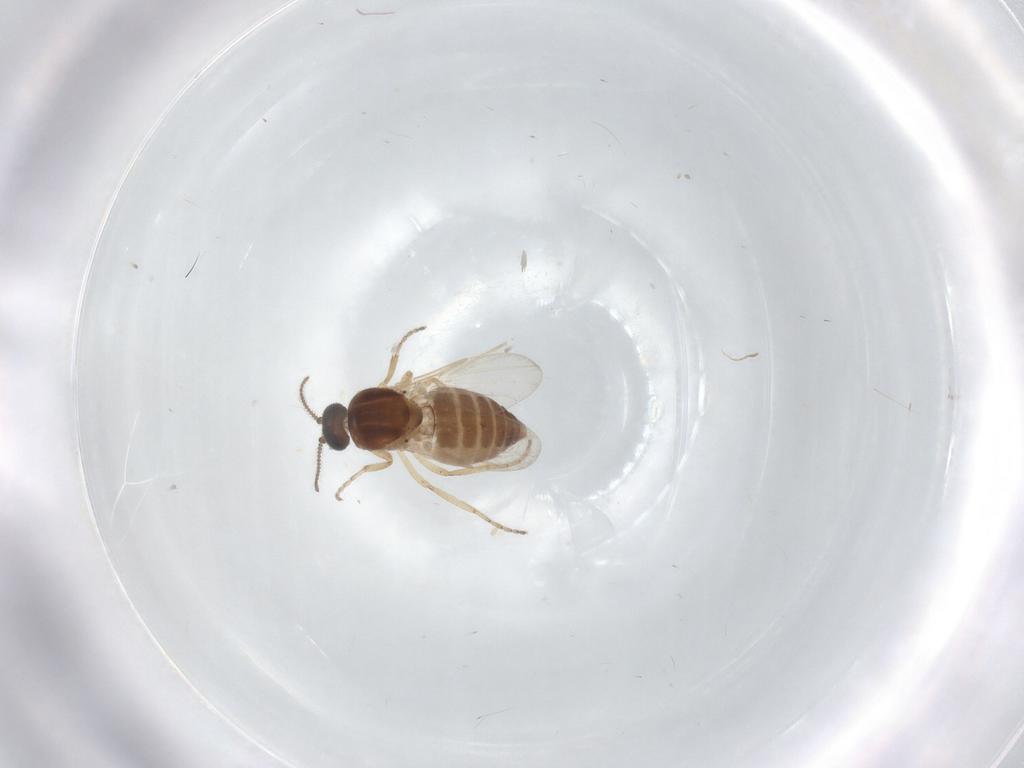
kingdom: Animalia
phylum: Arthropoda
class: Insecta
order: Diptera
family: Ceratopogonidae
